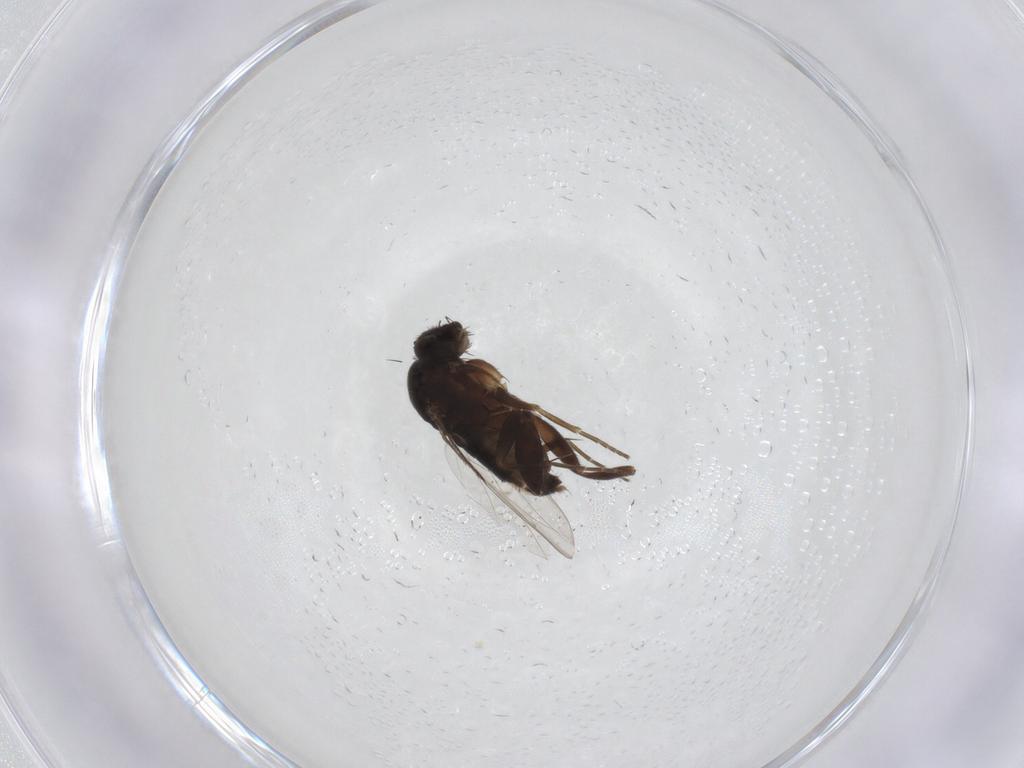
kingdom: Animalia
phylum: Arthropoda
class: Insecta
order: Diptera
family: Phoridae
